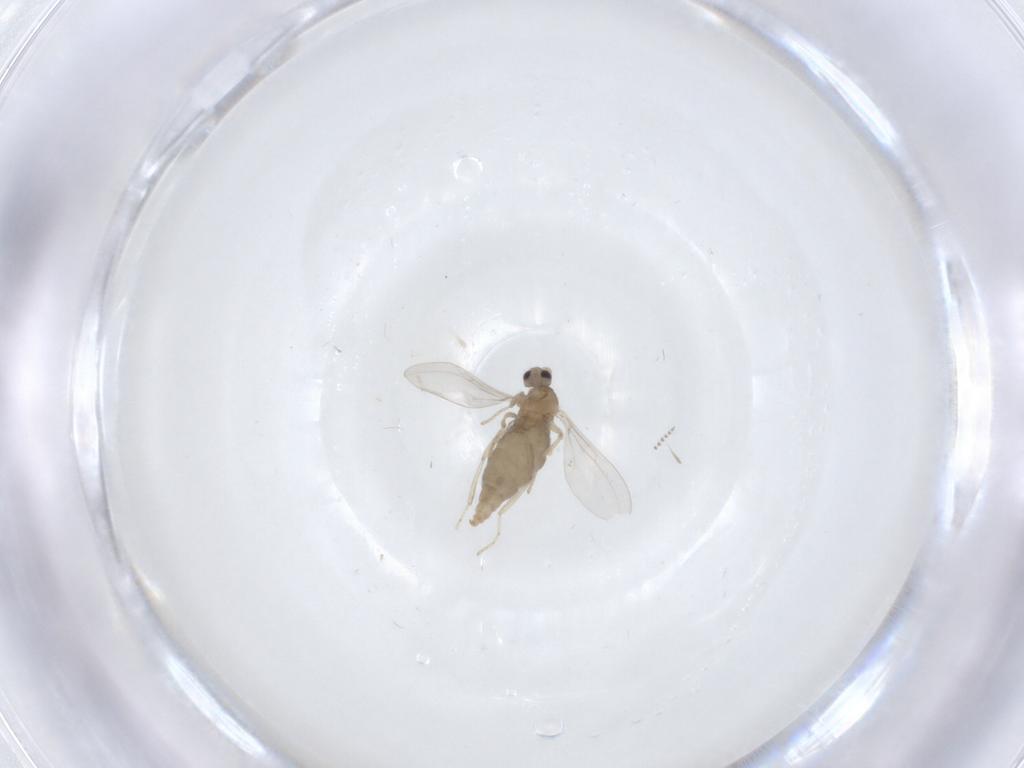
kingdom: Animalia
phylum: Arthropoda
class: Insecta
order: Diptera
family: Cecidomyiidae
